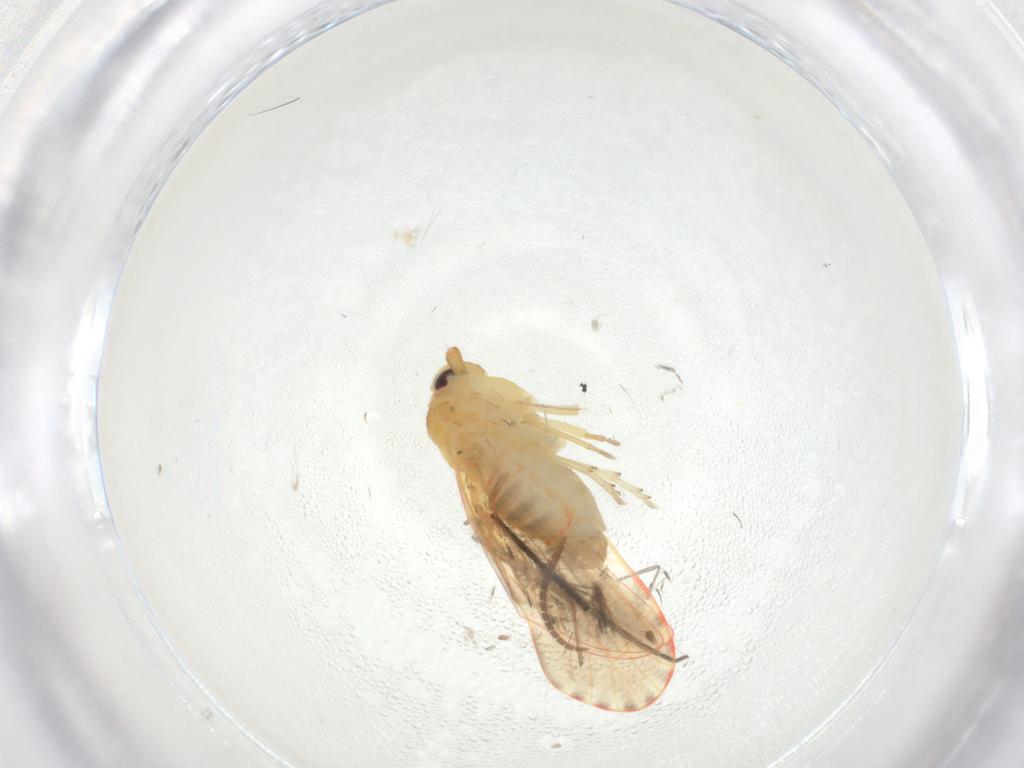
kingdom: Animalia
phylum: Arthropoda
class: Insecta
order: Hemiptera
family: Derbidae
